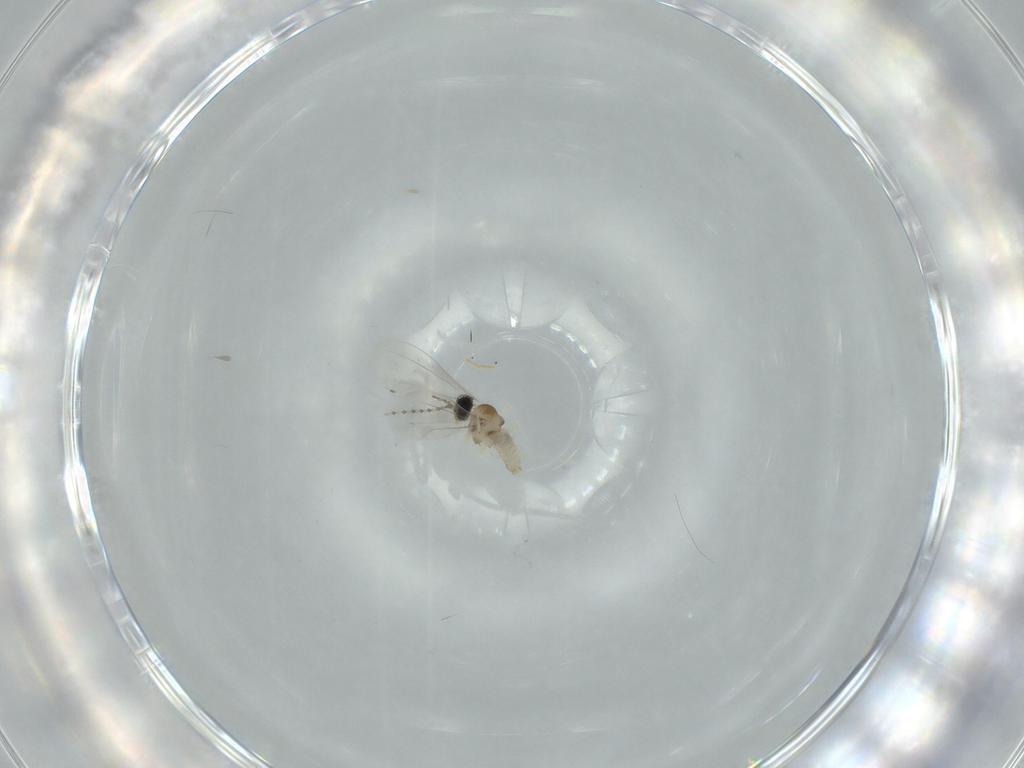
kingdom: Animalia
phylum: Arthropoda
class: Insecta
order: Diptera
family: Cecidomyiidae
